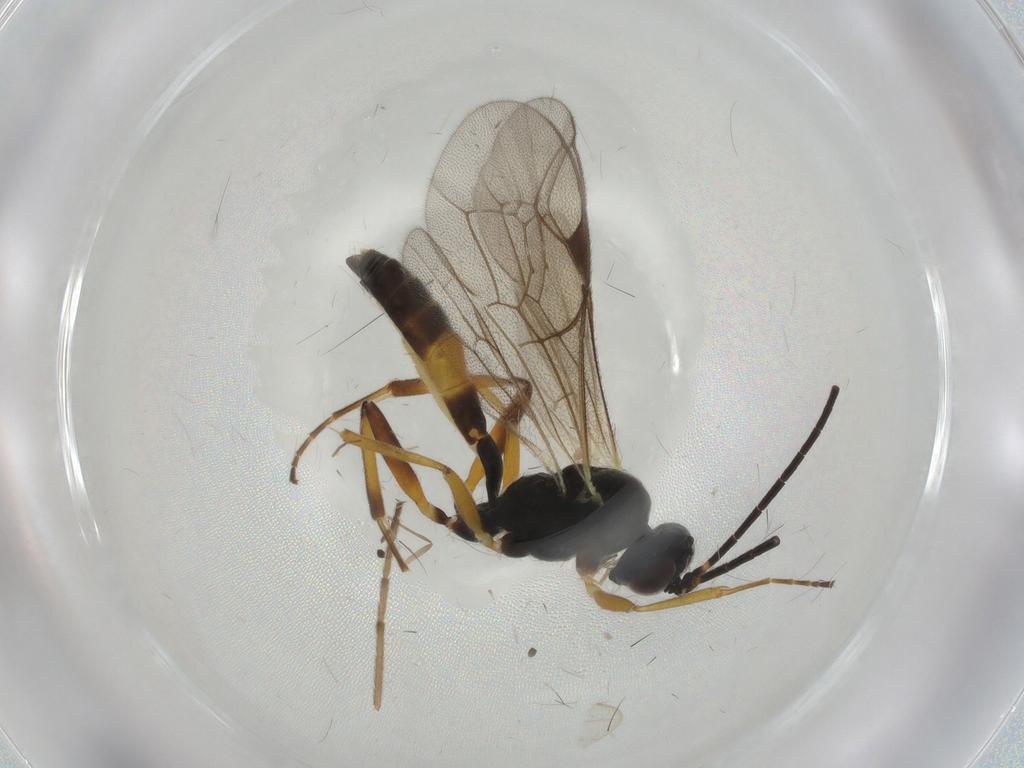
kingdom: Animalia
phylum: Arthropoda
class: Insecta
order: Hymenoptera
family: Ichneumonidae
